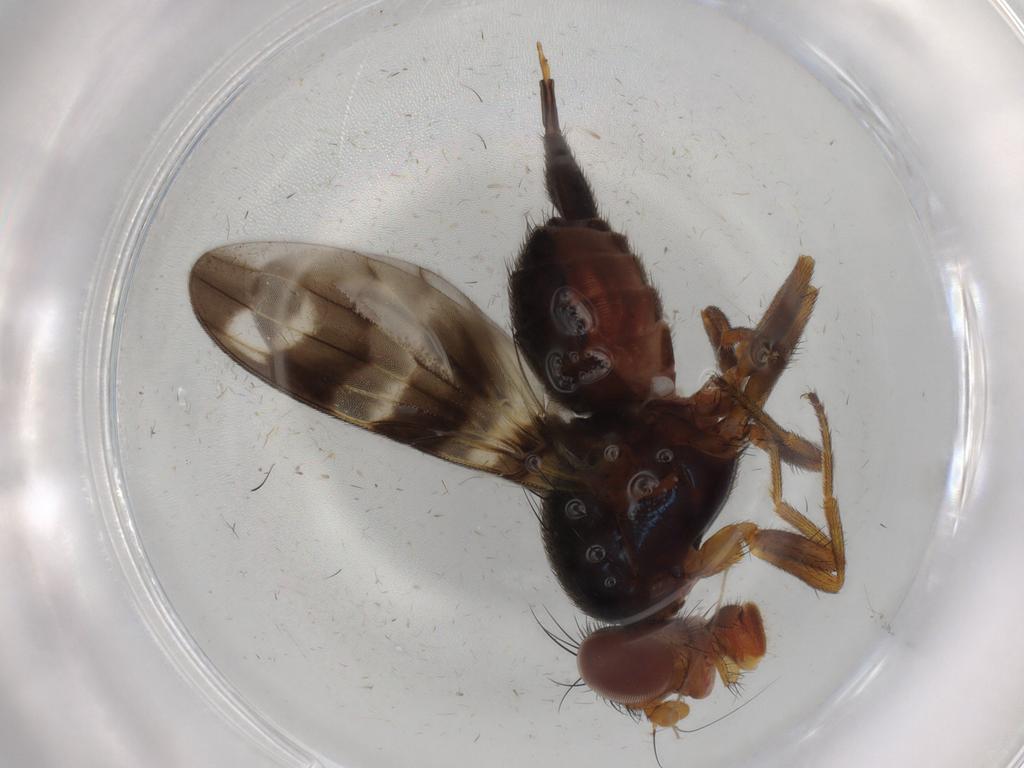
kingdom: Animalia
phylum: Arthropoda
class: Insecta
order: Diptera
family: Ulidiidae
